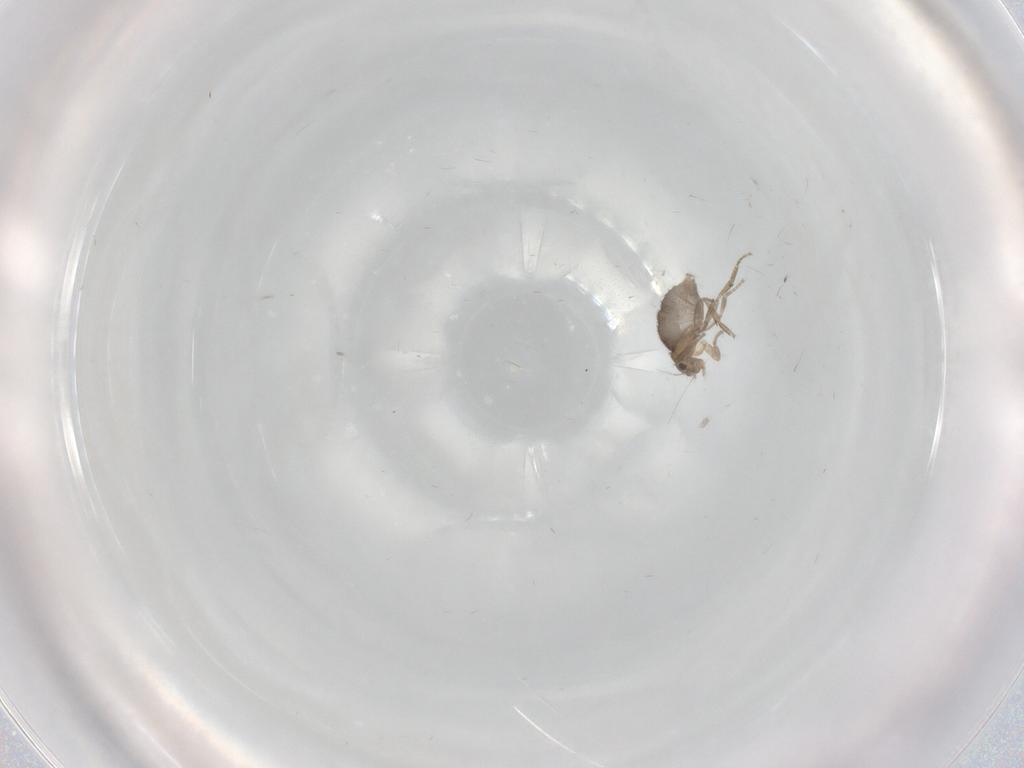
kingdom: Animalia
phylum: Arthropoda
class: Insecta
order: Diptera
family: Phoridae
